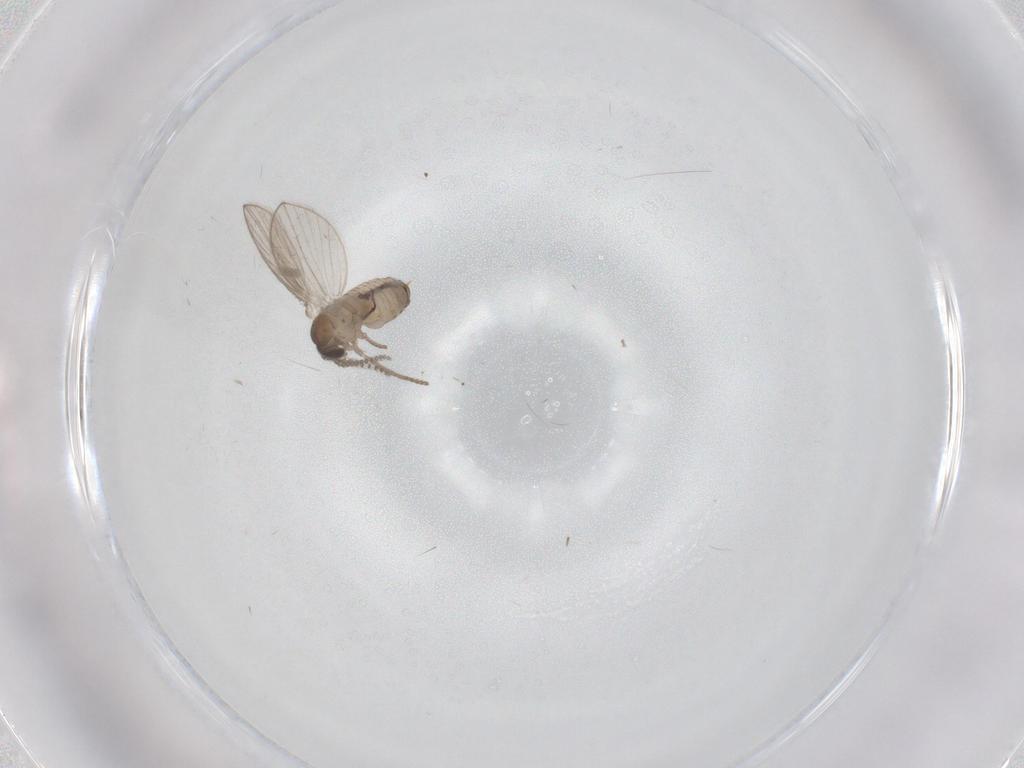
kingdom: Animalia
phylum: Arthropoda
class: Insecta
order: Diptera
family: Psychodidae
